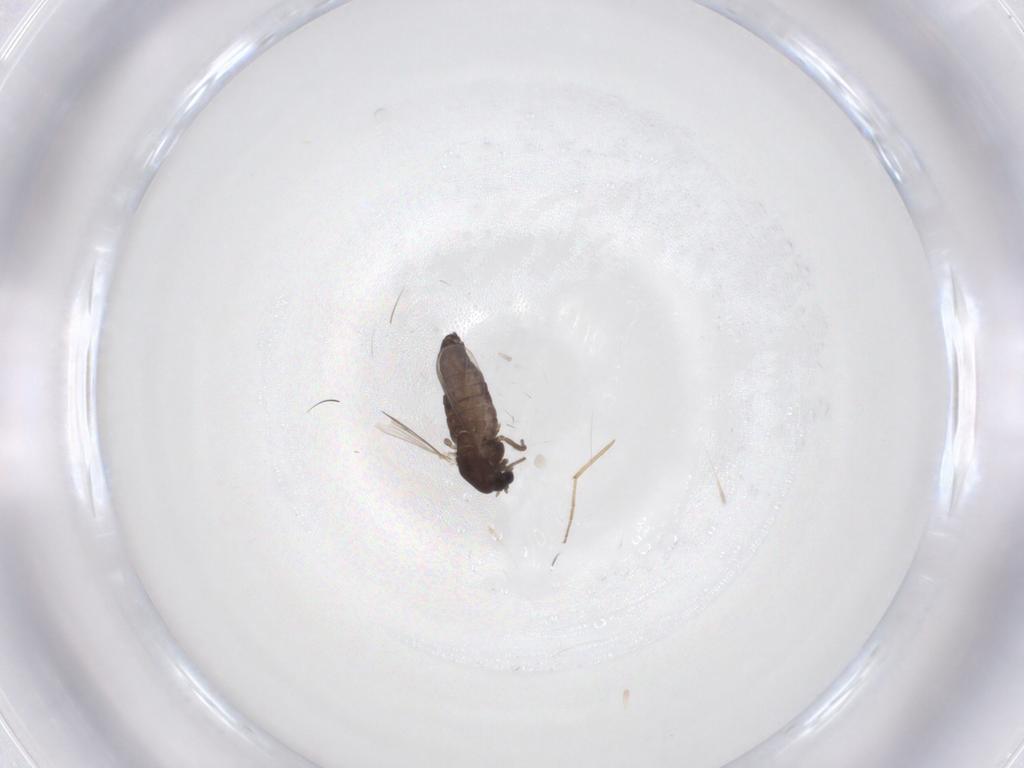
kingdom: Animalia
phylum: Arthropoda
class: Insecta
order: Diptera
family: Chironomidae
